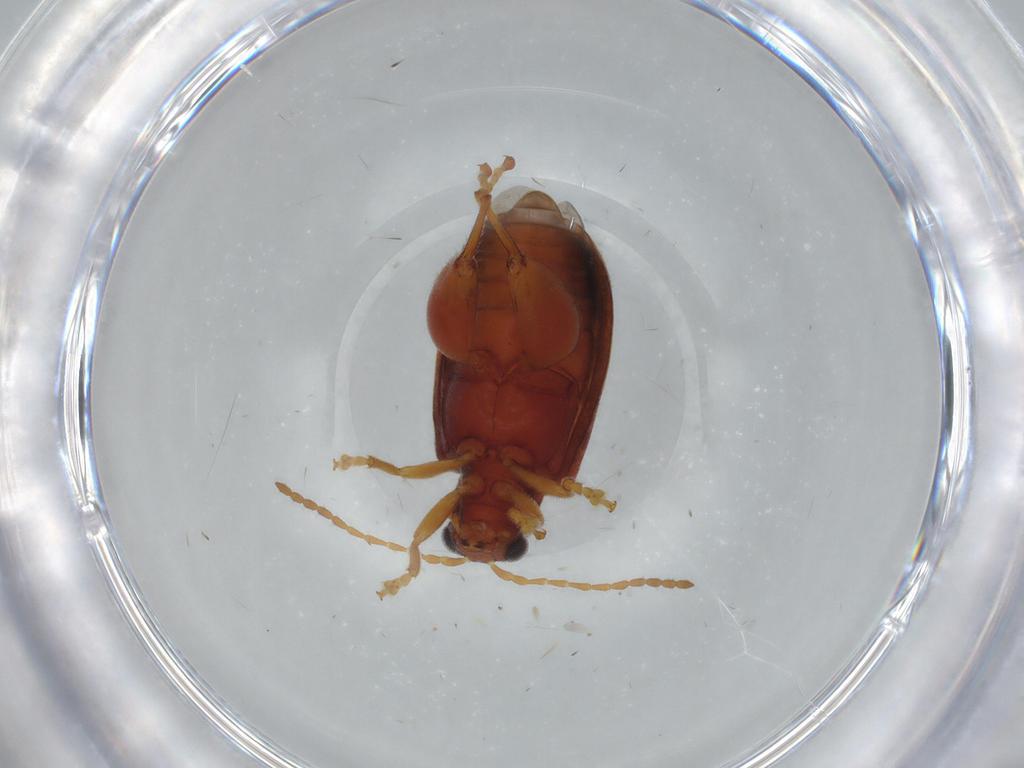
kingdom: Animalia
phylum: Arthropoda
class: Insecta
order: Coleoptera
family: Chrysomelidae
